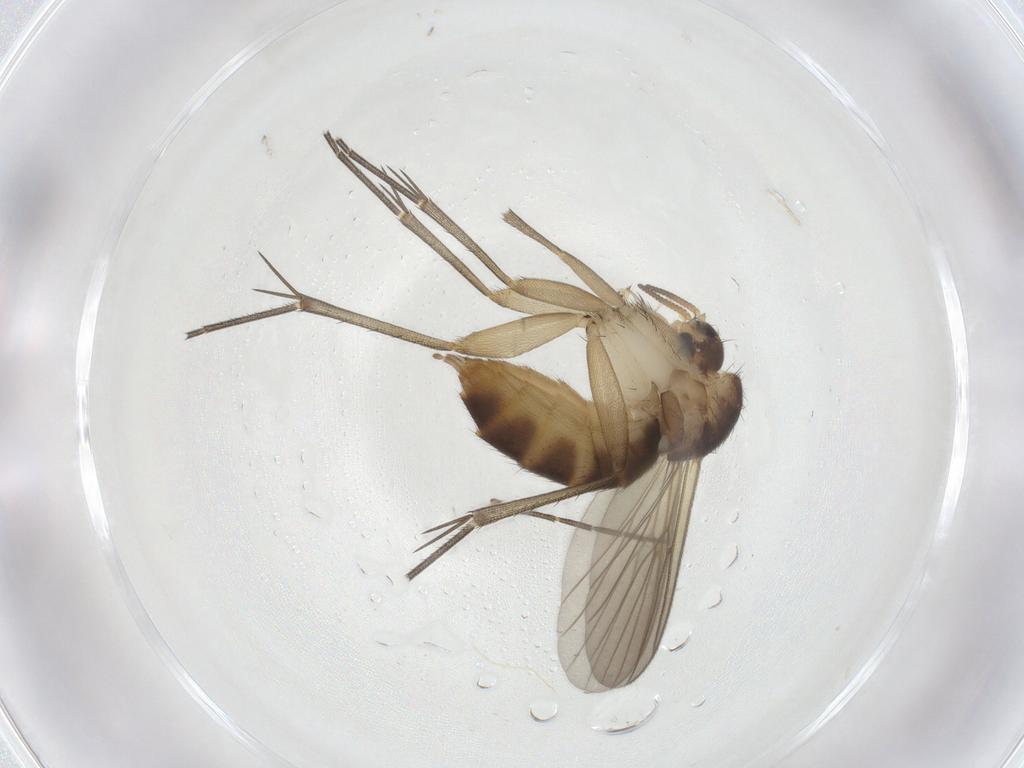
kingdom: Animalia
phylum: Arthropoda
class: Insecta
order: Diptera
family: Mycetophilidae
